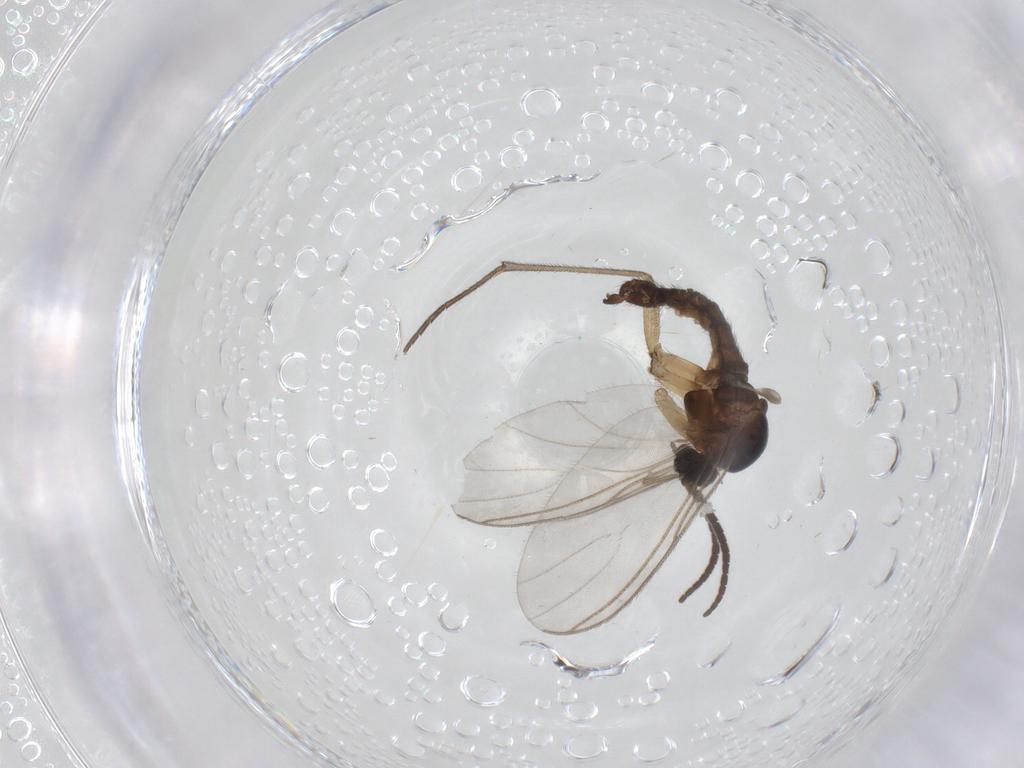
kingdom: Animalia
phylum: Arthropoda
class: Insecta
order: Diptera
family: Sciaridae
